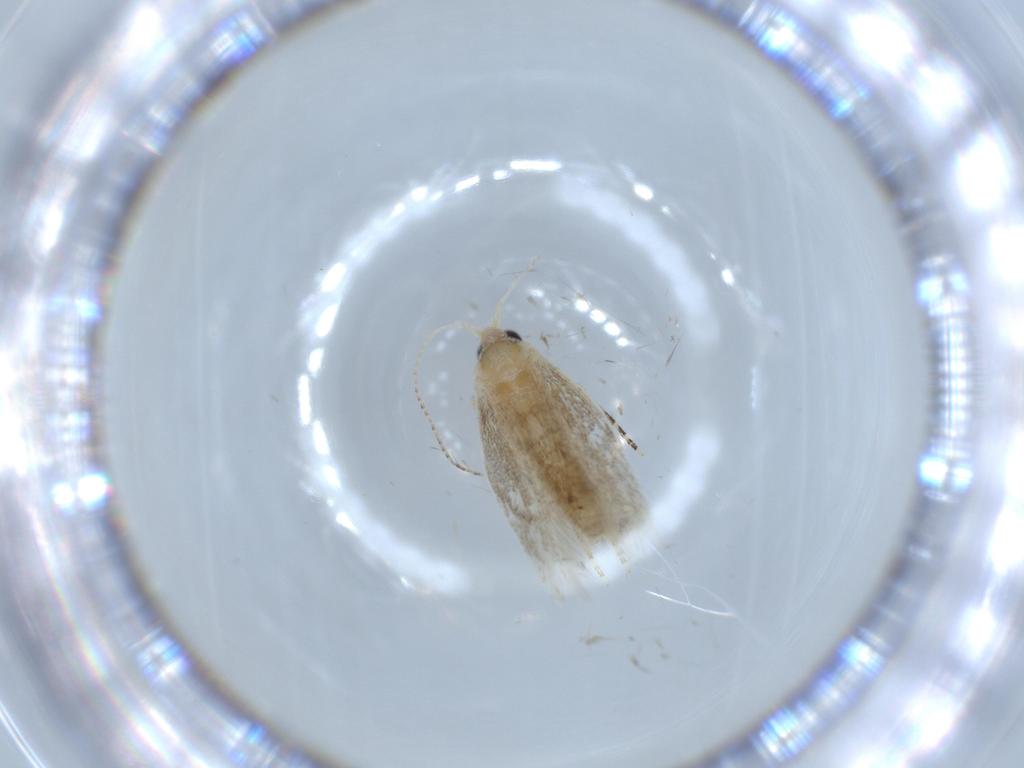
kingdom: Animalia
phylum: Arthropoda
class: Insecta
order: Lepidoptera
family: Bucculatricidae
